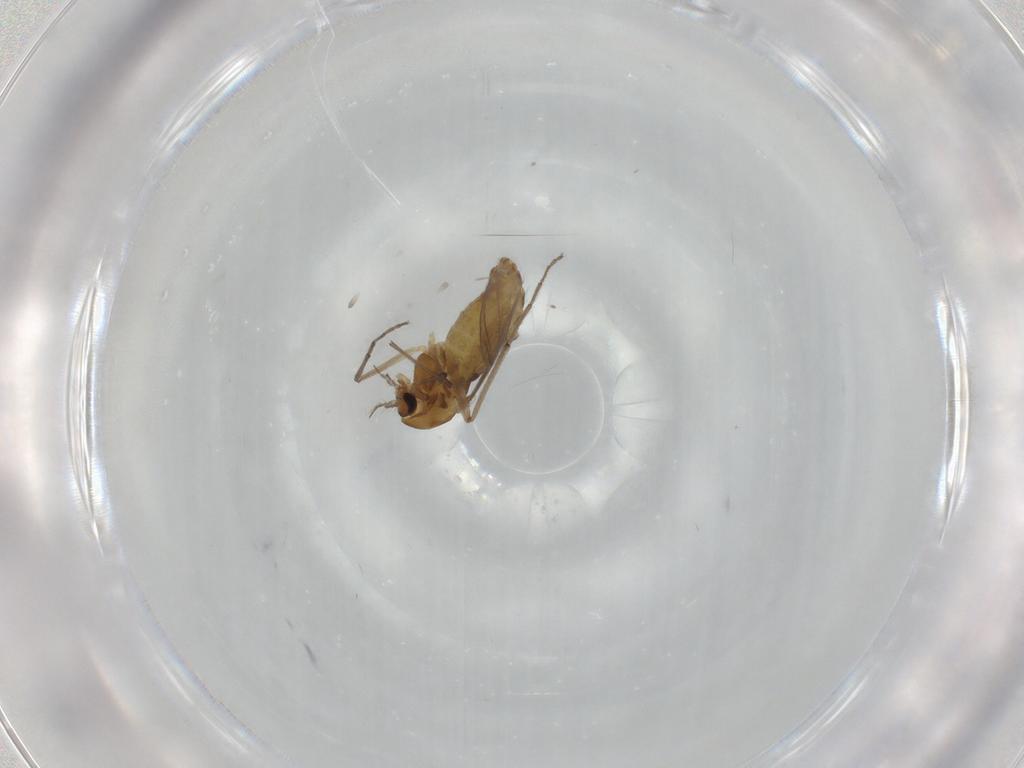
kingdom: Animalia
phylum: Arthropoda
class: Insecta
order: Diptera
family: Chironomidae
